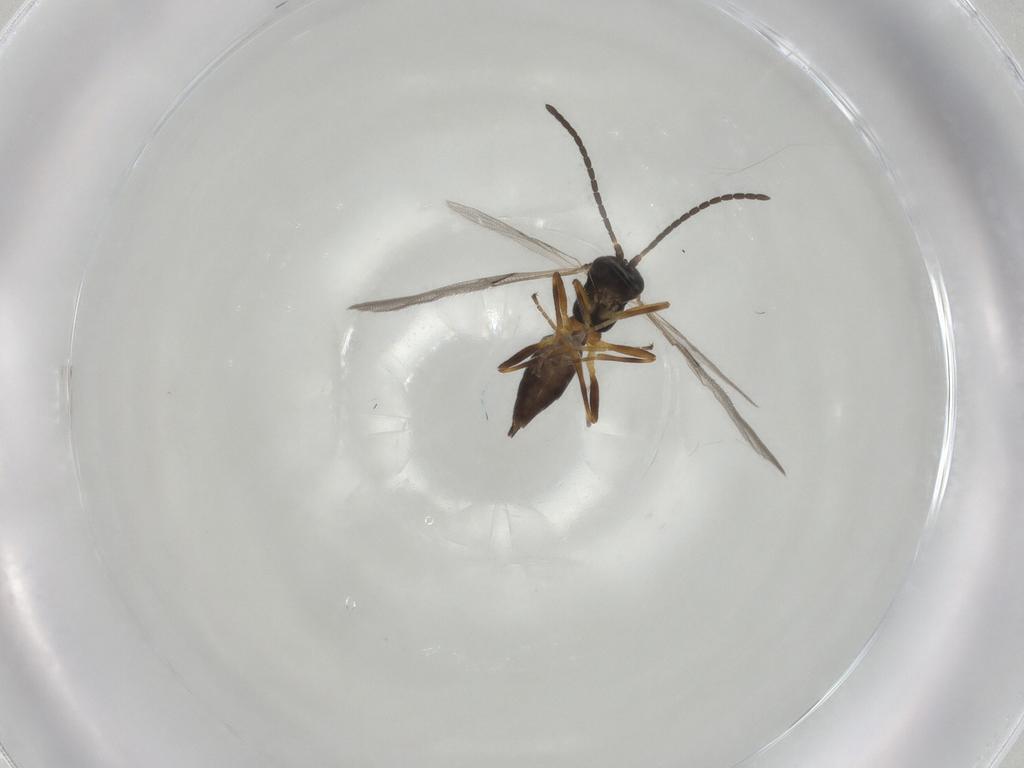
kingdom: Animalia
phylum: Arthropoda
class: Insecta
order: Hymenoptera
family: Braconidae
